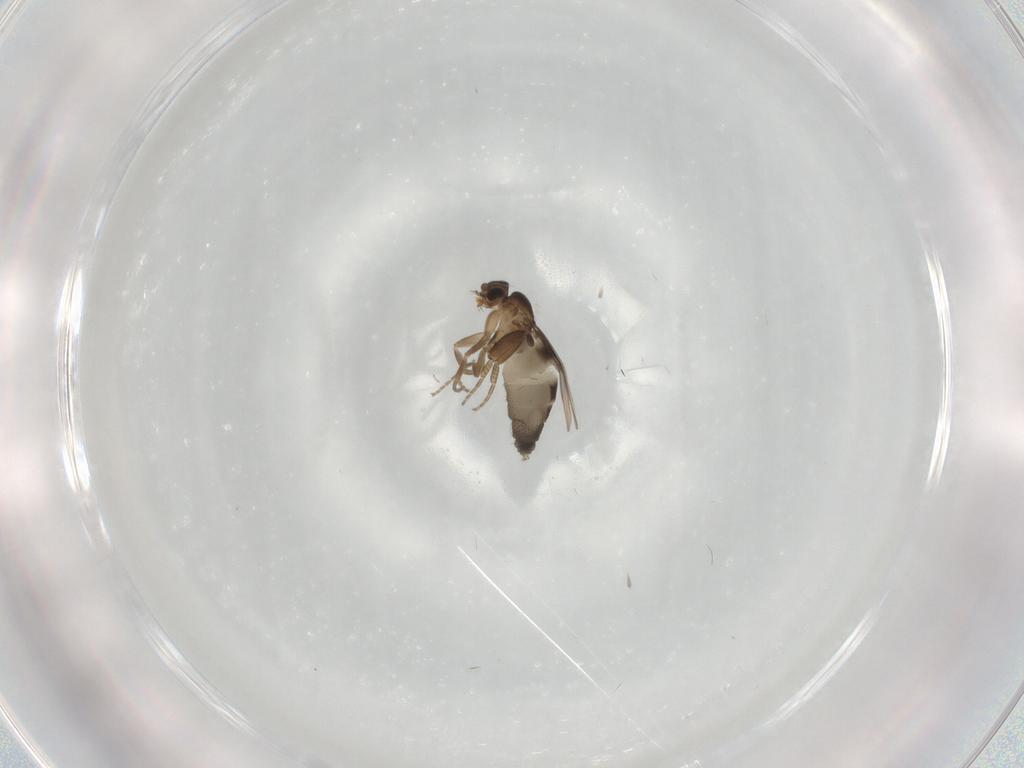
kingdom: Animalia
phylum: Arthropoda
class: Insecta
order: Diptera
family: Phoridae
